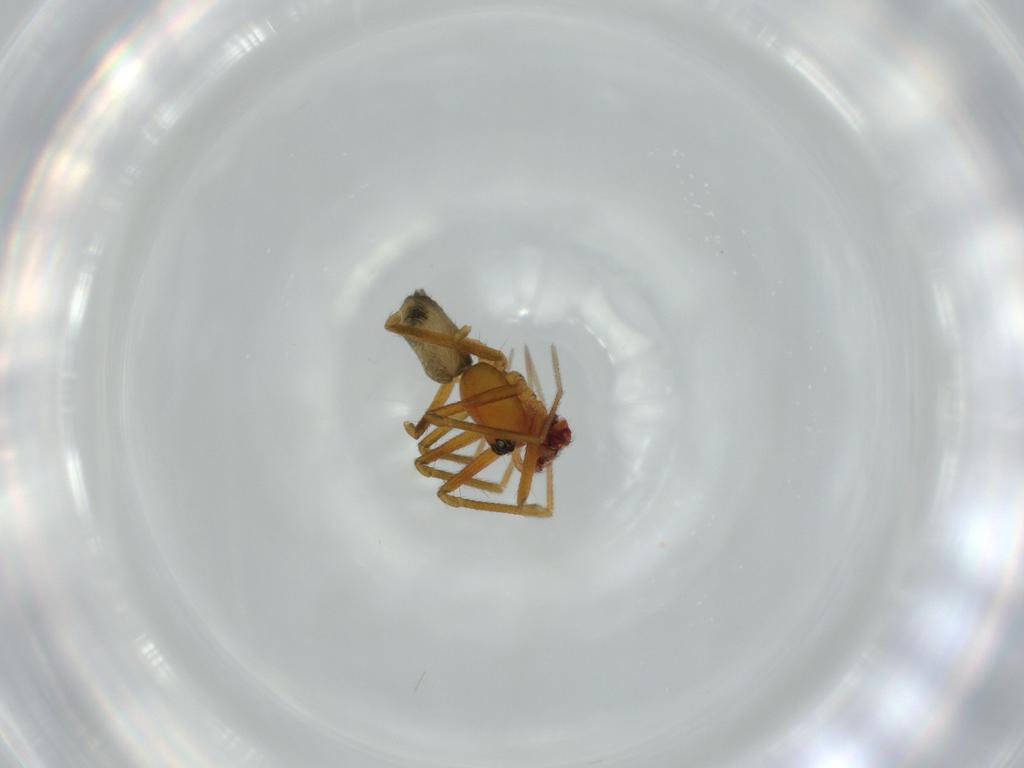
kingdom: Animalia
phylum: Arthropoda
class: Arachnida
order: Araneae
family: Linyphiidae
